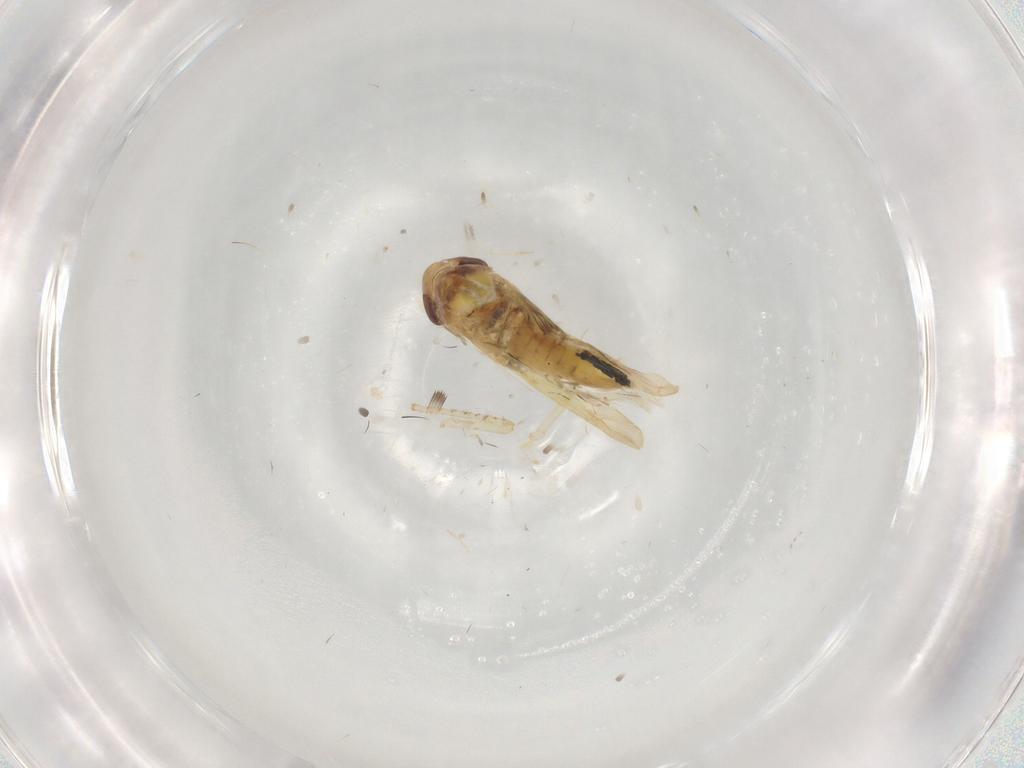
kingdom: Animalia
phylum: Arthropoda
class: Insecta
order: Hemiptera
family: Cicadellidae
